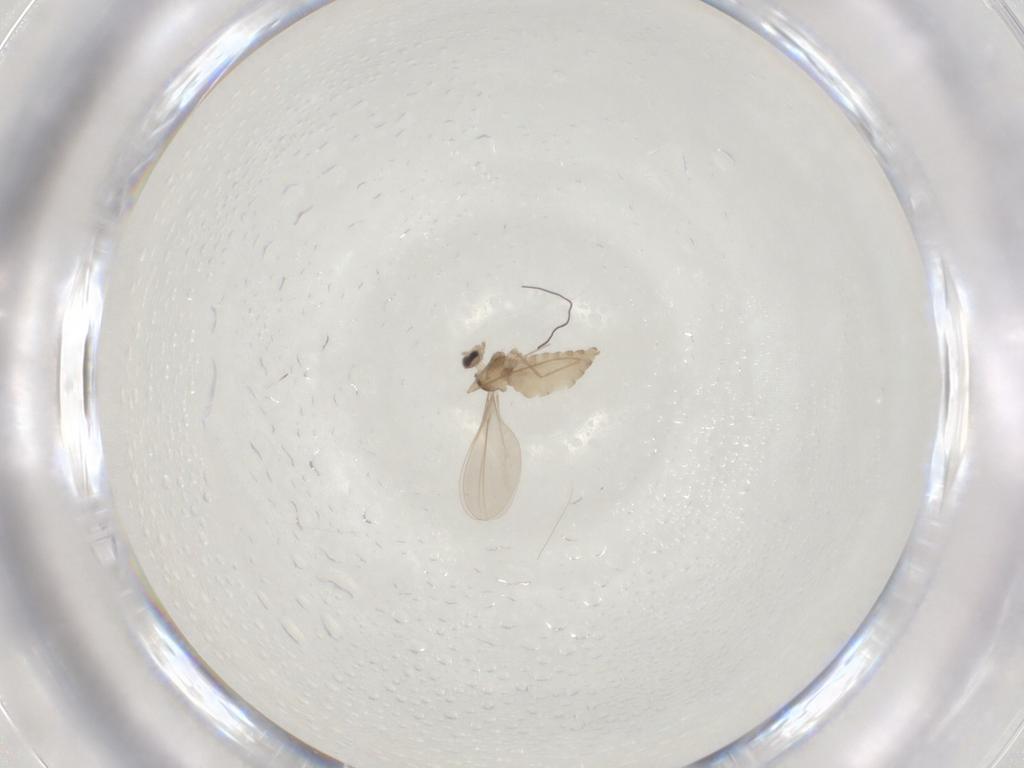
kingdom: Animalia
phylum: Arthropoda
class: Insecta
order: Diptera
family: Cecidomyiidae
